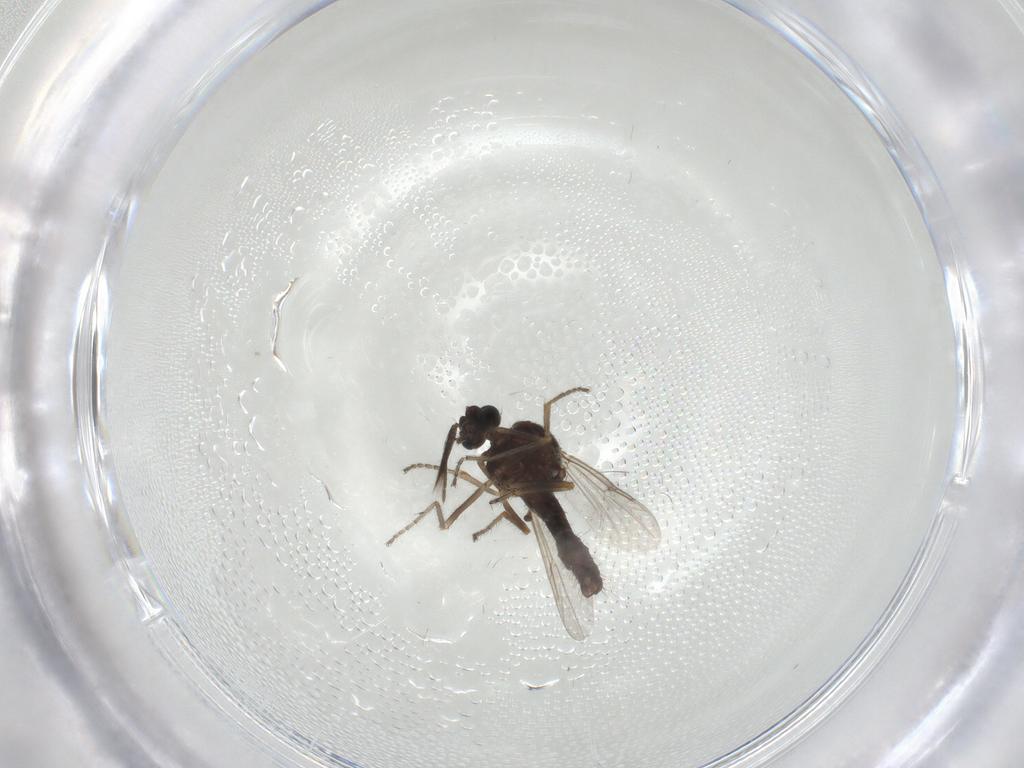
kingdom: Animalia
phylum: Arthropoda
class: Insecta
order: Diptera
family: Ceratopogonidae
